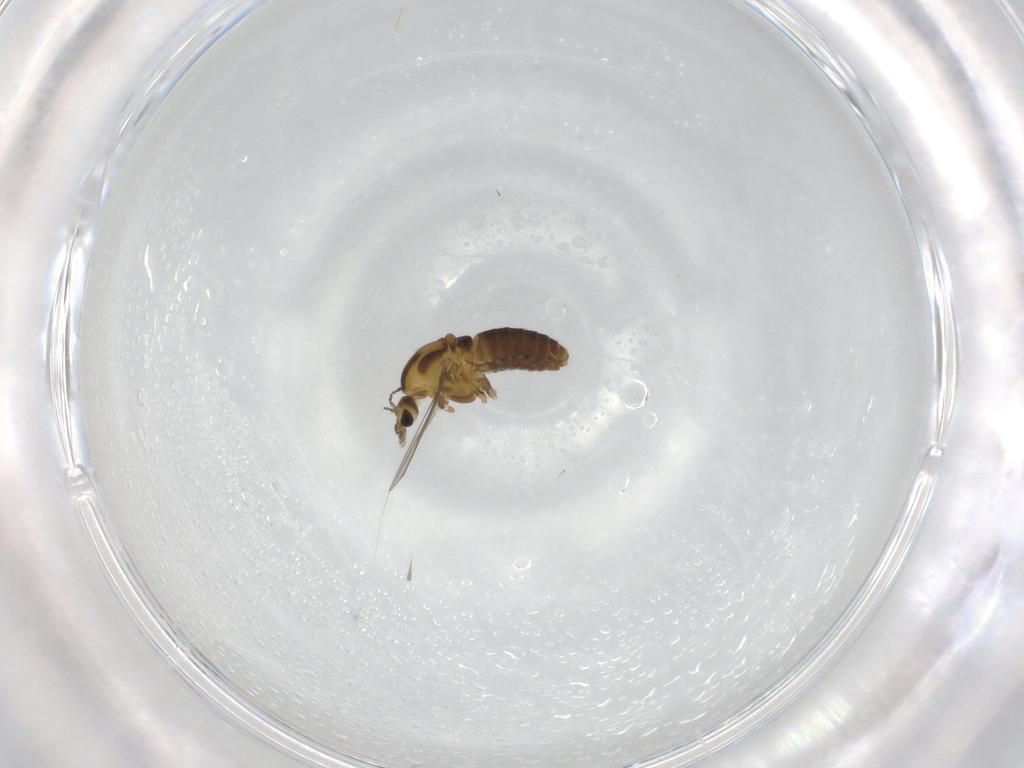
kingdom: Animalia
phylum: Arthropoda
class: Insecta
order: Diptera
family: Chironomidae
